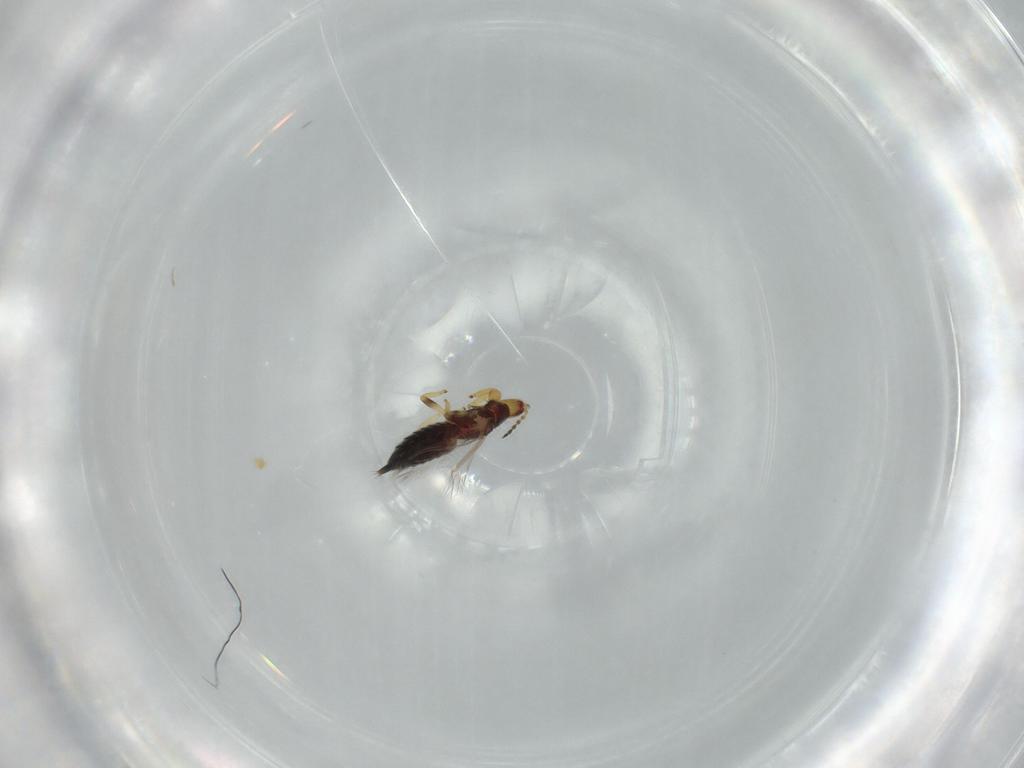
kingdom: Animalia
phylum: Arthropoda
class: Insecta
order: Thysanoptera
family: Phlaeothripidae
